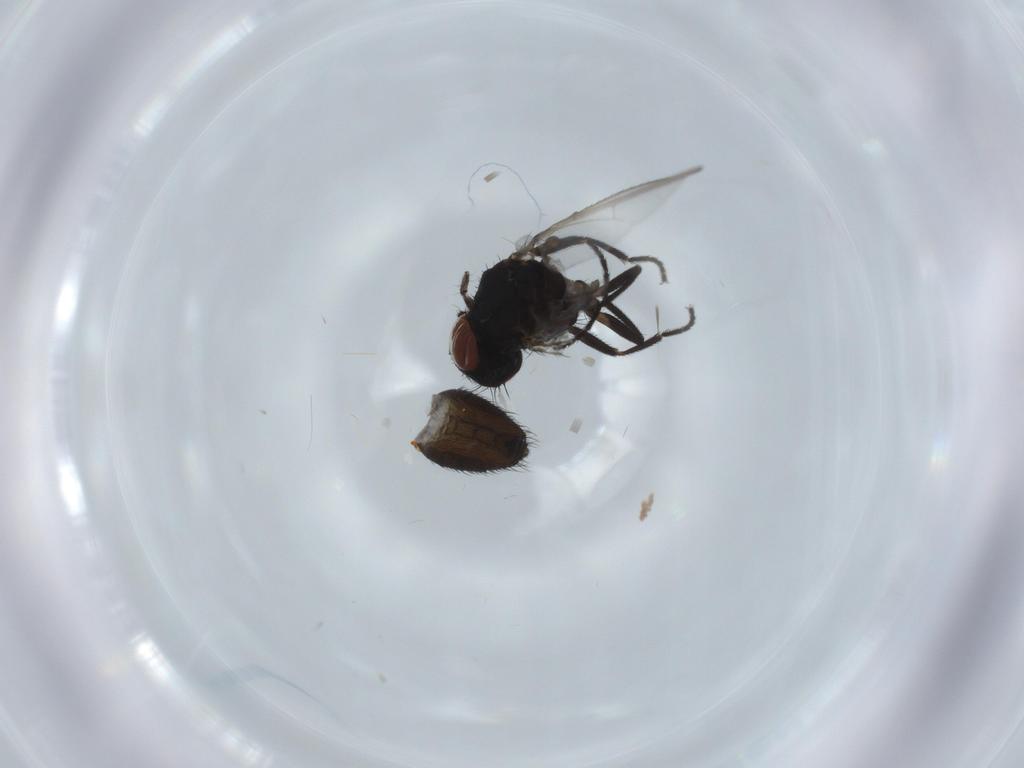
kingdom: Animalia
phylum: Arthropoda
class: Insecta
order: Diptera
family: Milichiidae
